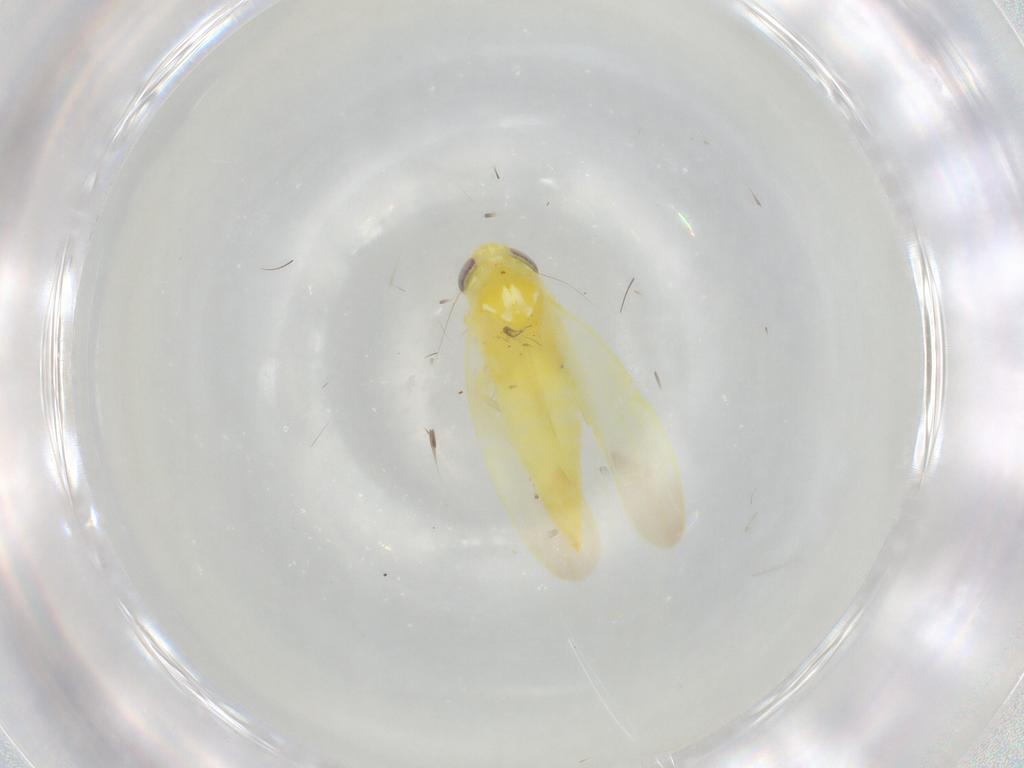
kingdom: Animalia
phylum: Arthropoda
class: Insecta
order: Hemiptera
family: Cicadellidae
